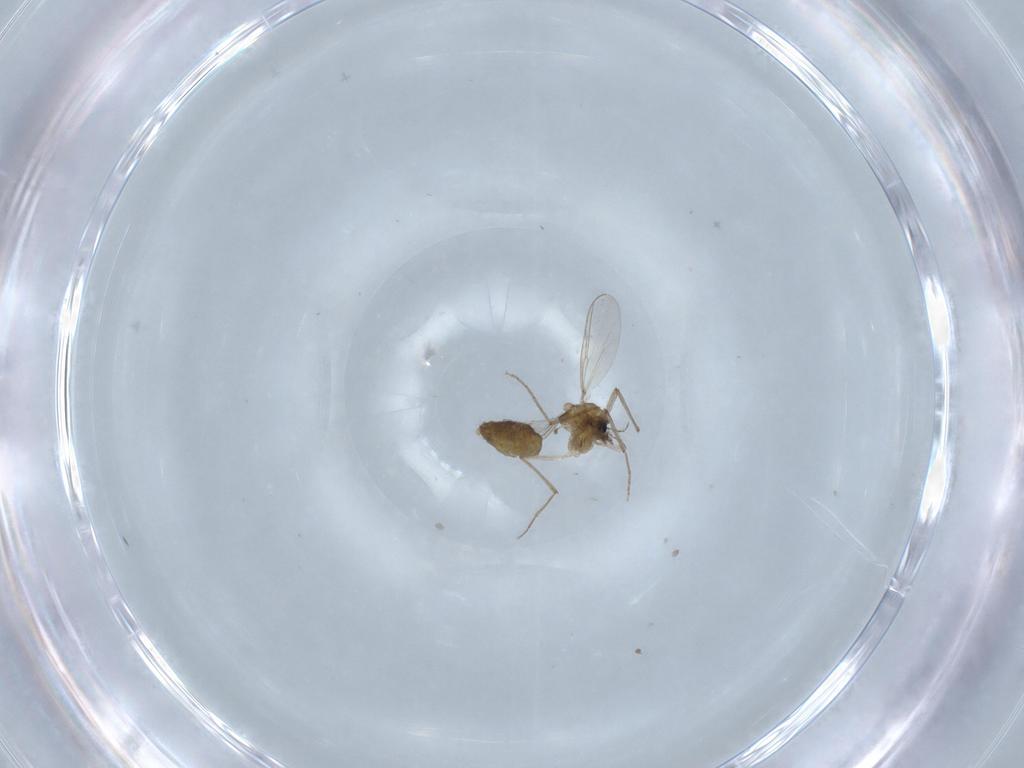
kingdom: Animalia
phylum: Arthropoda
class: Insecta
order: Diptera
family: Chironomidae
